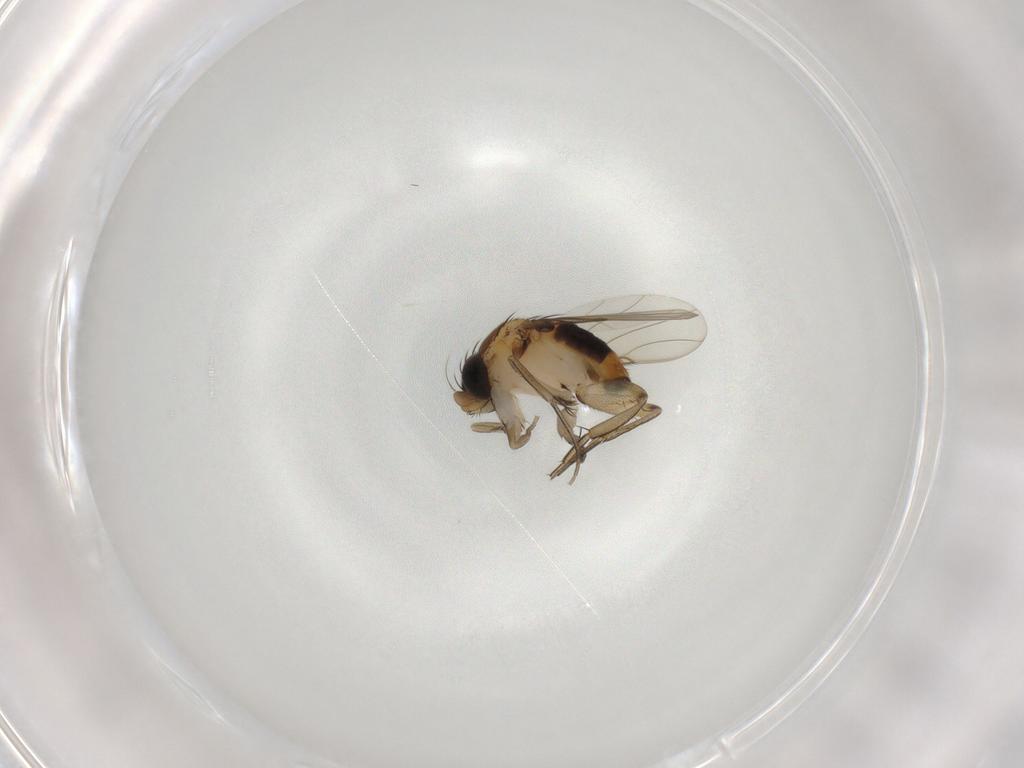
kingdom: Animalia
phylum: Arthropoda
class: Insecta
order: Diptera
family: Phoridae
